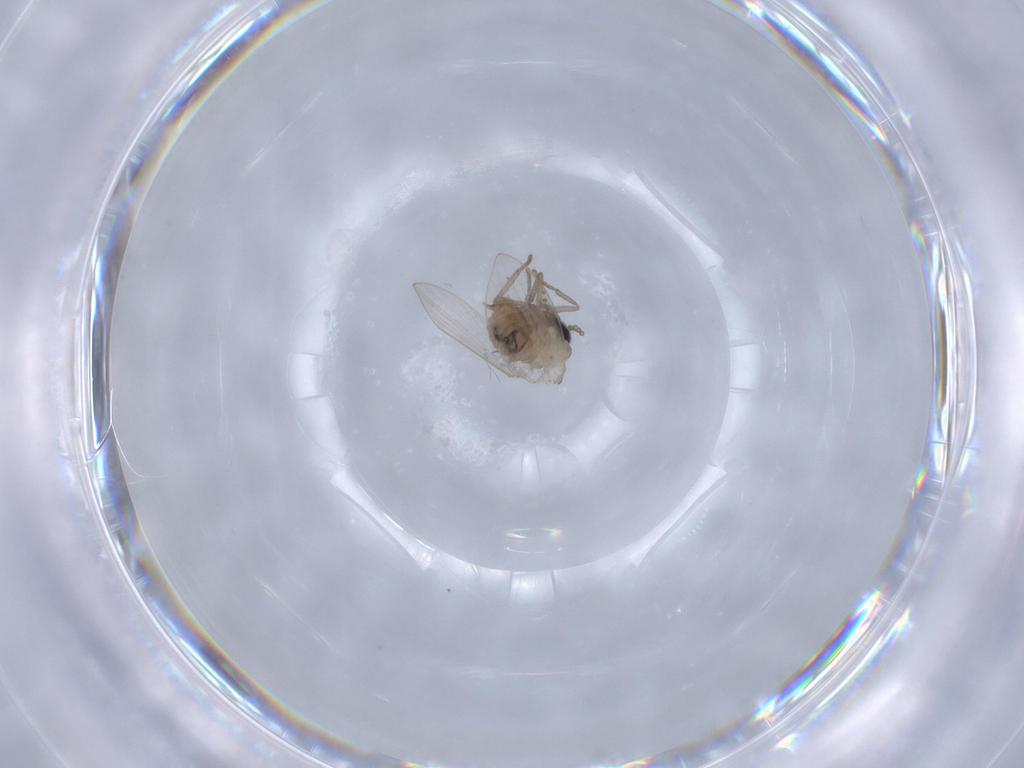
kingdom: Animalia
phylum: Arthropoda
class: Insecta
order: Diptera
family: Psychodidae
